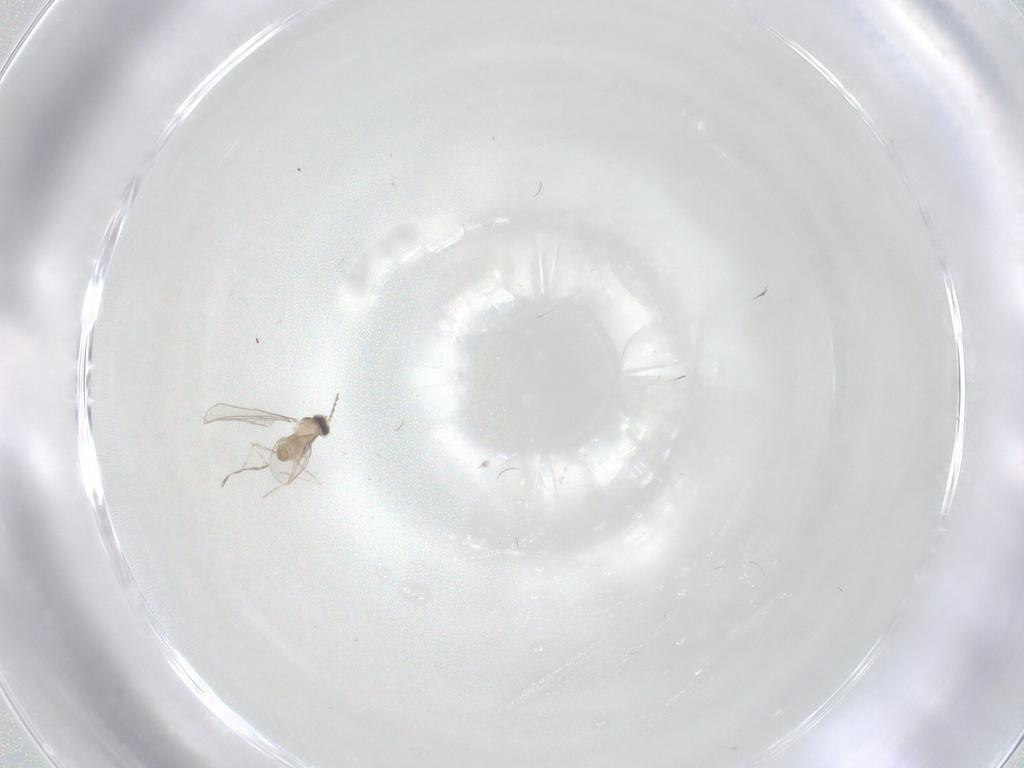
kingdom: Animalia
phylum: Arthropoda
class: Insecta
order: Diptera
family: Cecidomyiidae
